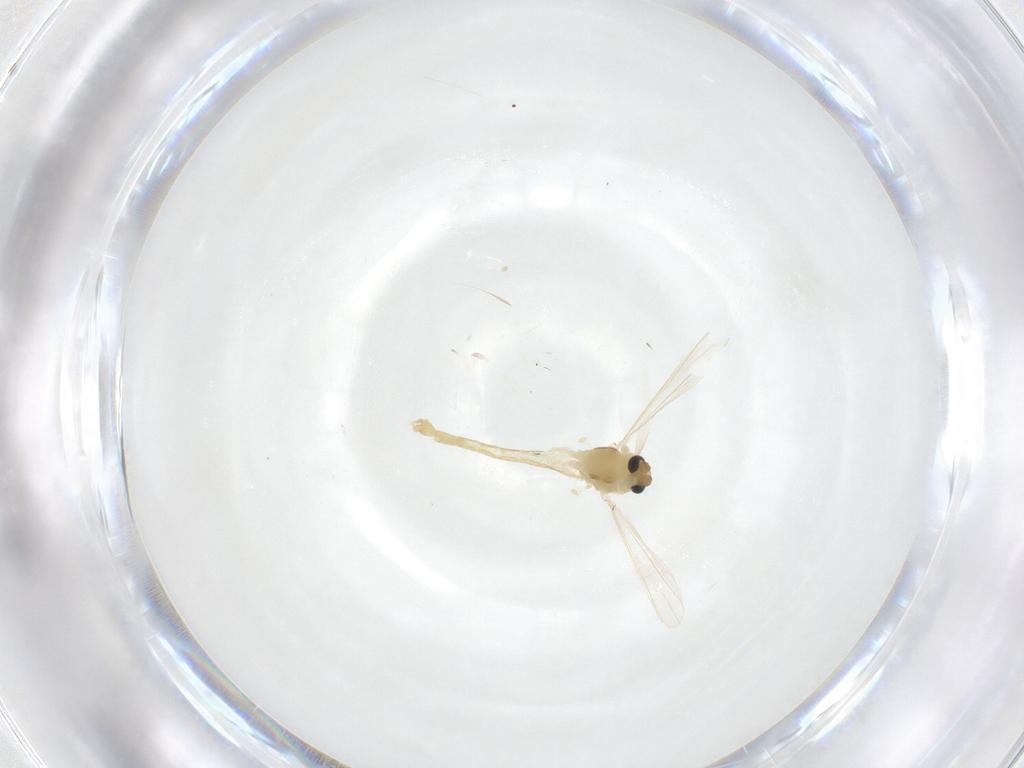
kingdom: Animalia
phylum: Arthropoda
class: Insecta
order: Diptera
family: Chironomidae
